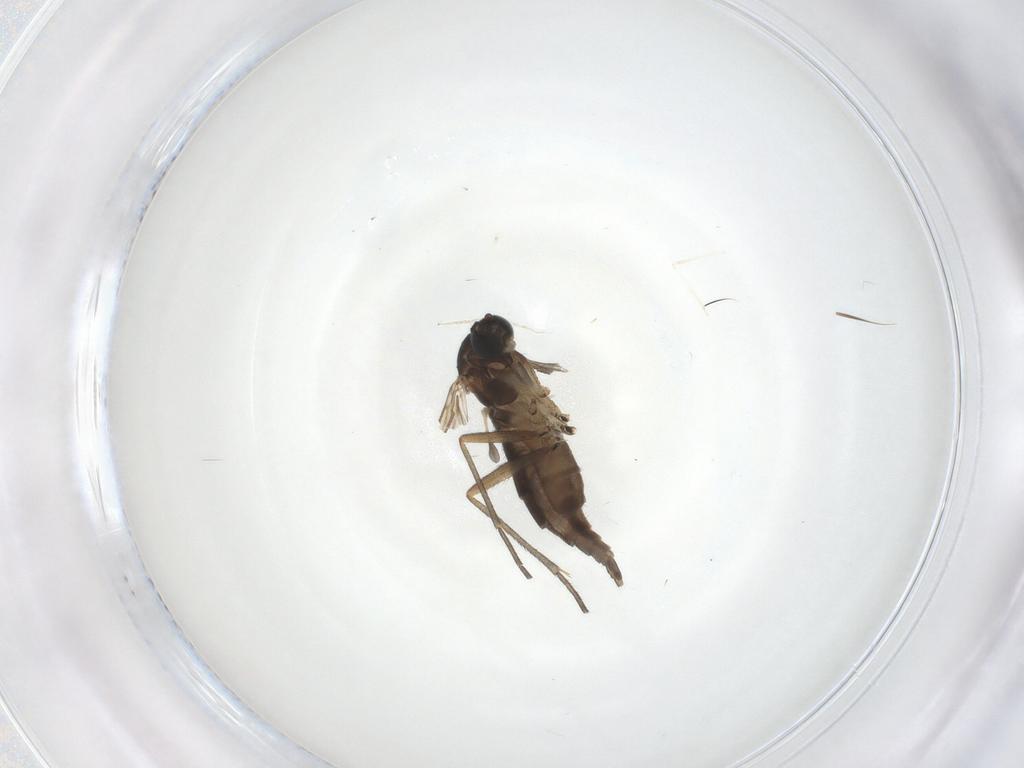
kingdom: Animalia
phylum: Arthropoda
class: Insecta
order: Diptera
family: Sciaridae
